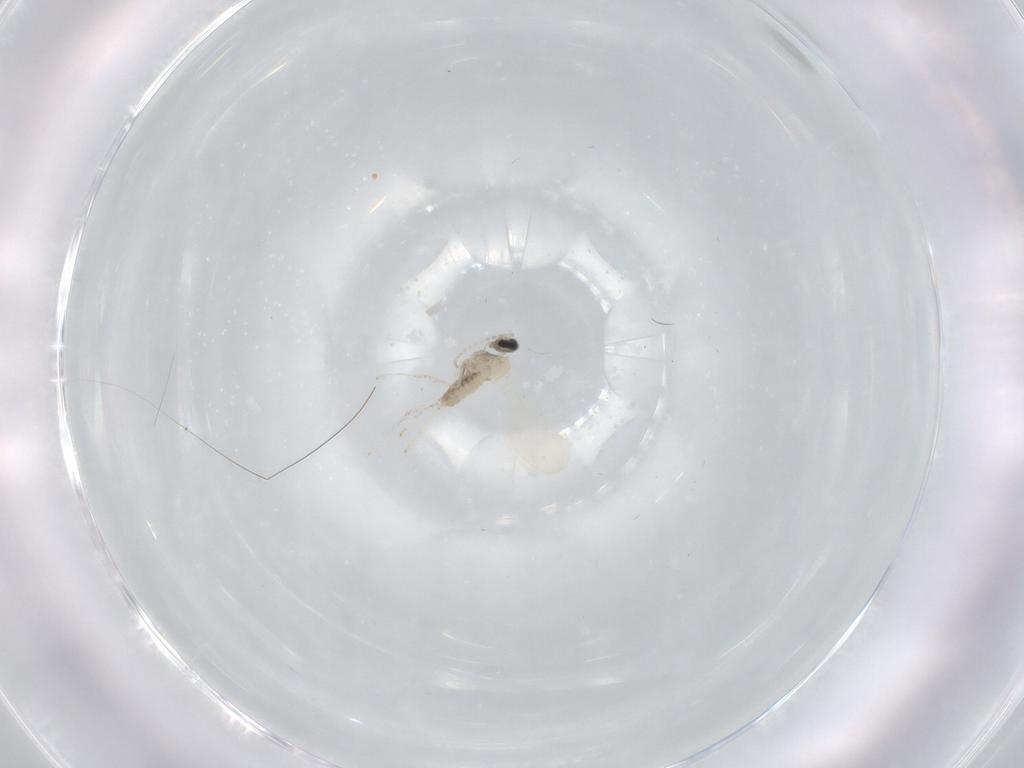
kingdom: Animalia
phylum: Arthropoda
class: Insecta
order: Diptera
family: Cecidomyiidae
